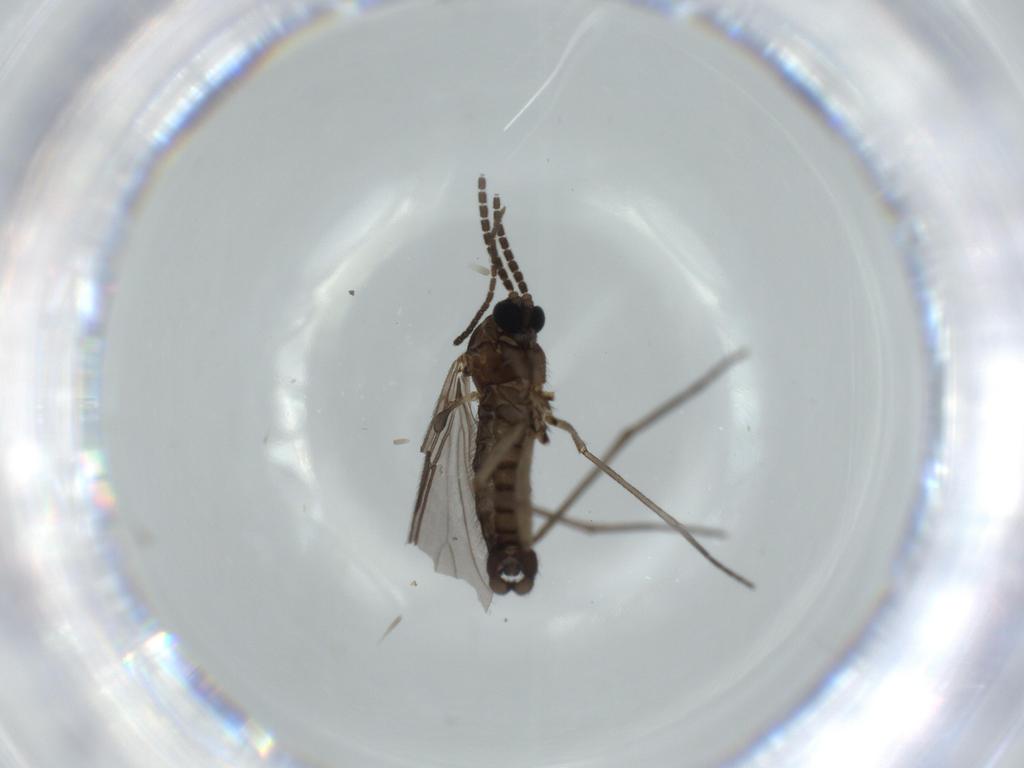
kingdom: Animalia
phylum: Arthropoda
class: Insecta
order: Diptera
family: Sciaridae
